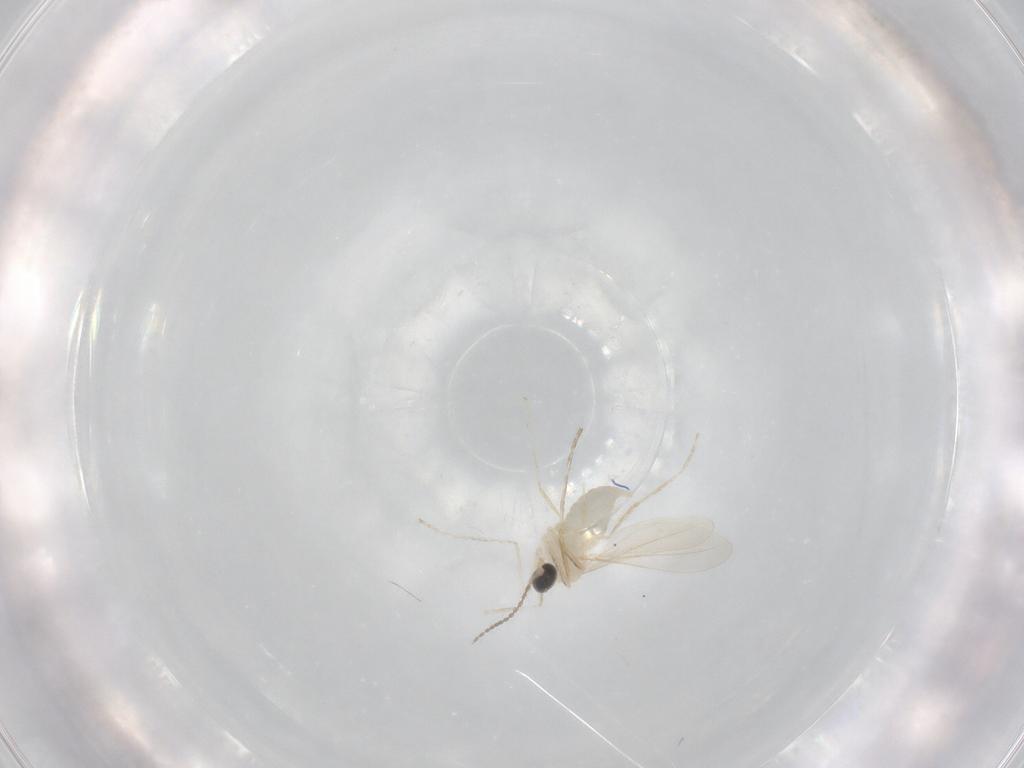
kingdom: Animalia
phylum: Arthropoda
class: Insecta
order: Diptera
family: Cecidomyiidae
